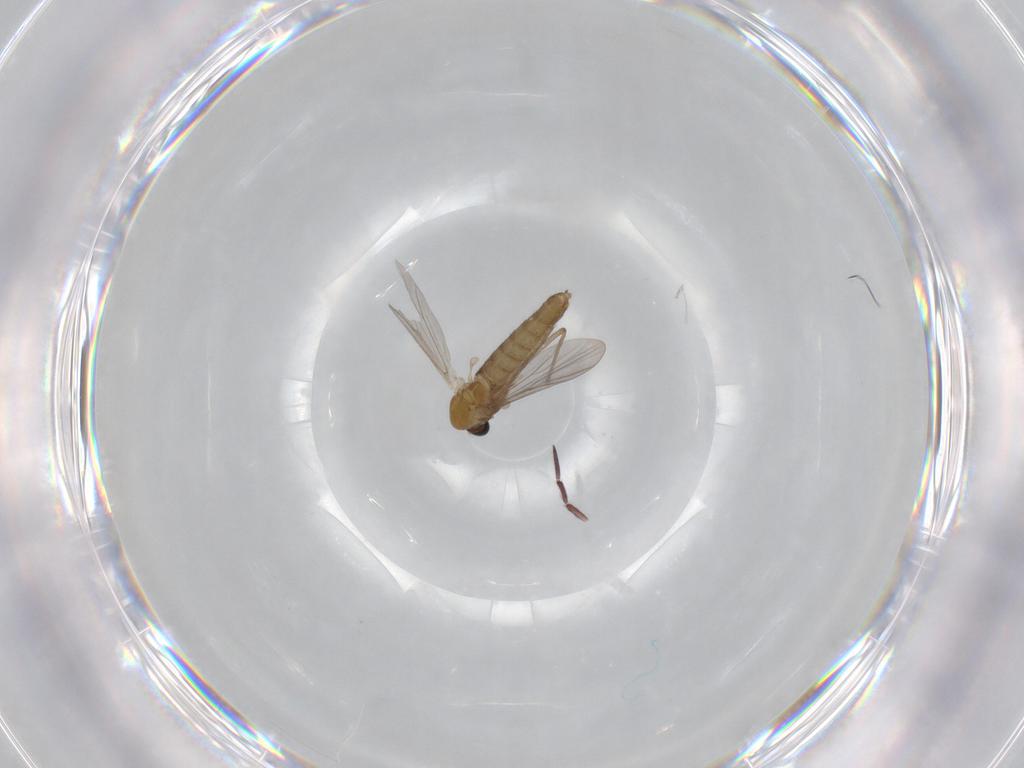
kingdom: Animalia
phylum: Arthropoda
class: Insecta
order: Diptera
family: Chironomidae
